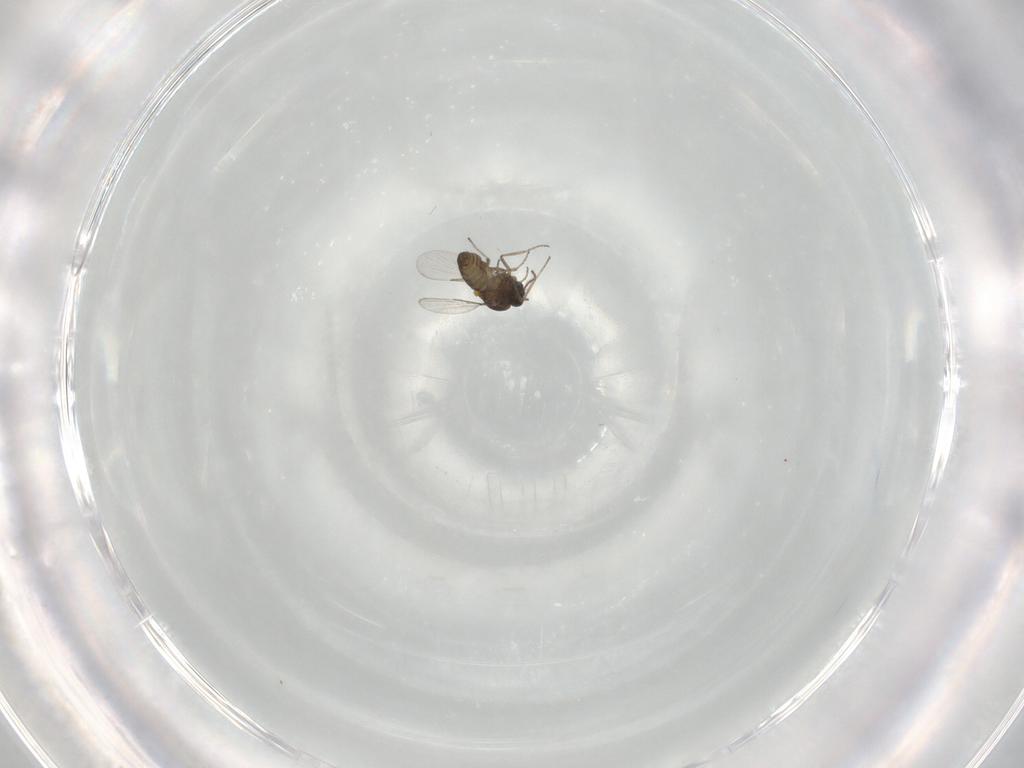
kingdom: Animalia
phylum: Arthropoda
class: Insecta
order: Diptera
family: Ceratopogonidae
